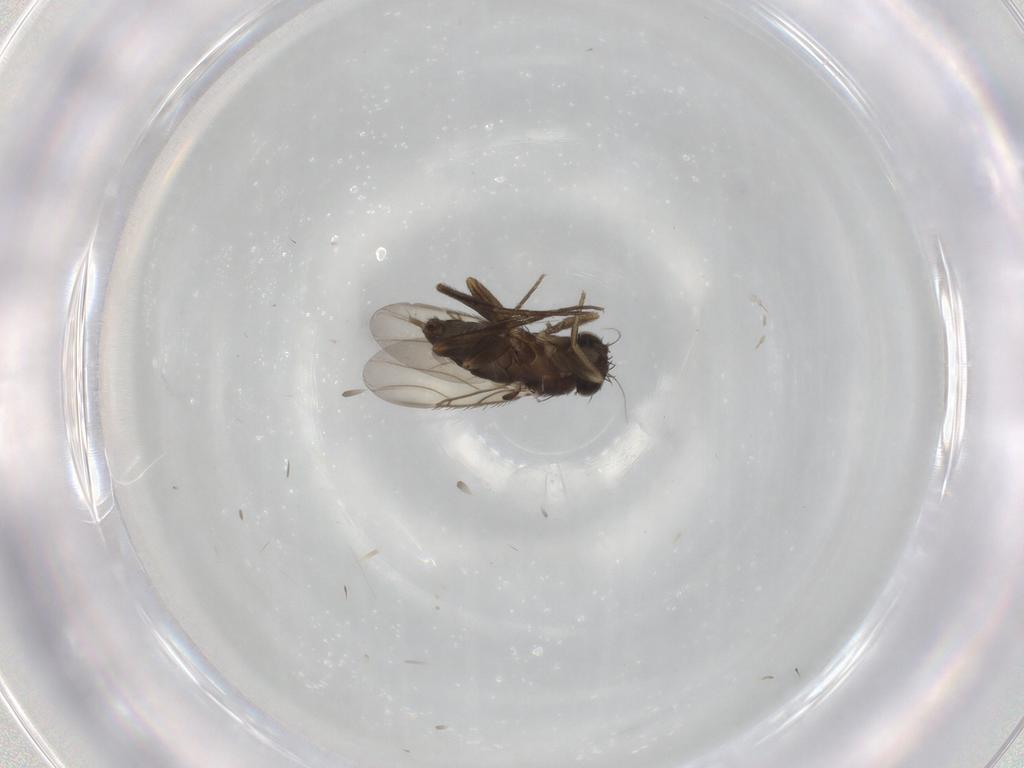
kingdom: Animalia
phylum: Arthropoda
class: Insecta
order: Diptera
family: Phoridae
